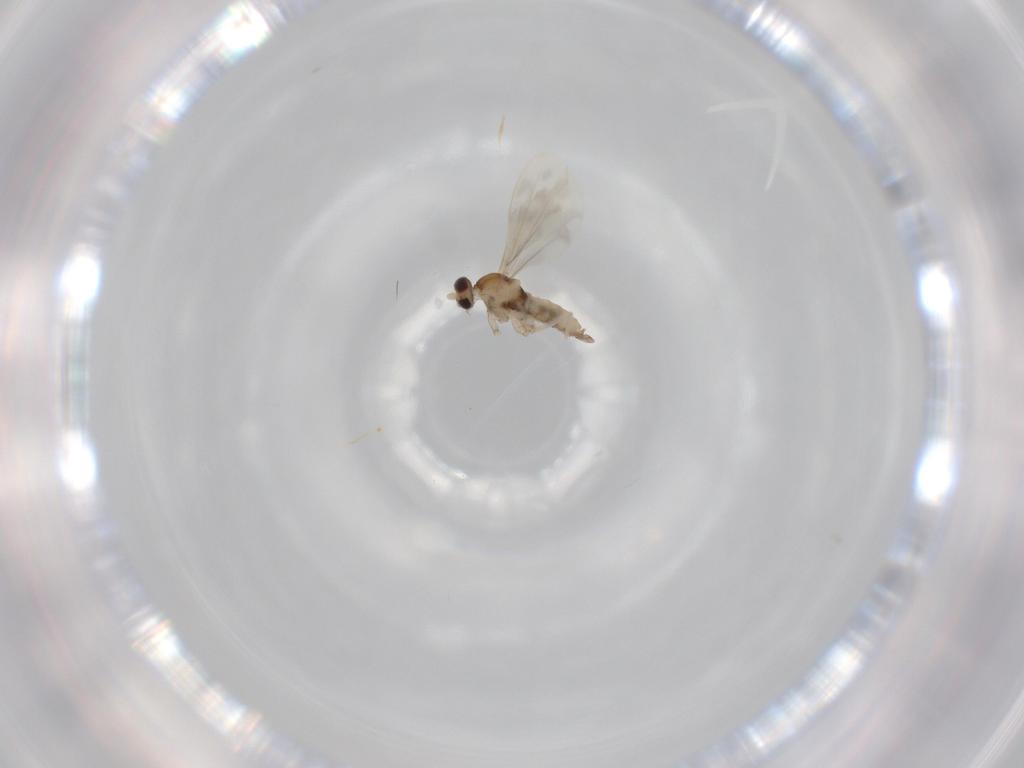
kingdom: Animalia
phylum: Arthropoda
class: Insecta
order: Diptera
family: Cecidomyiidae
